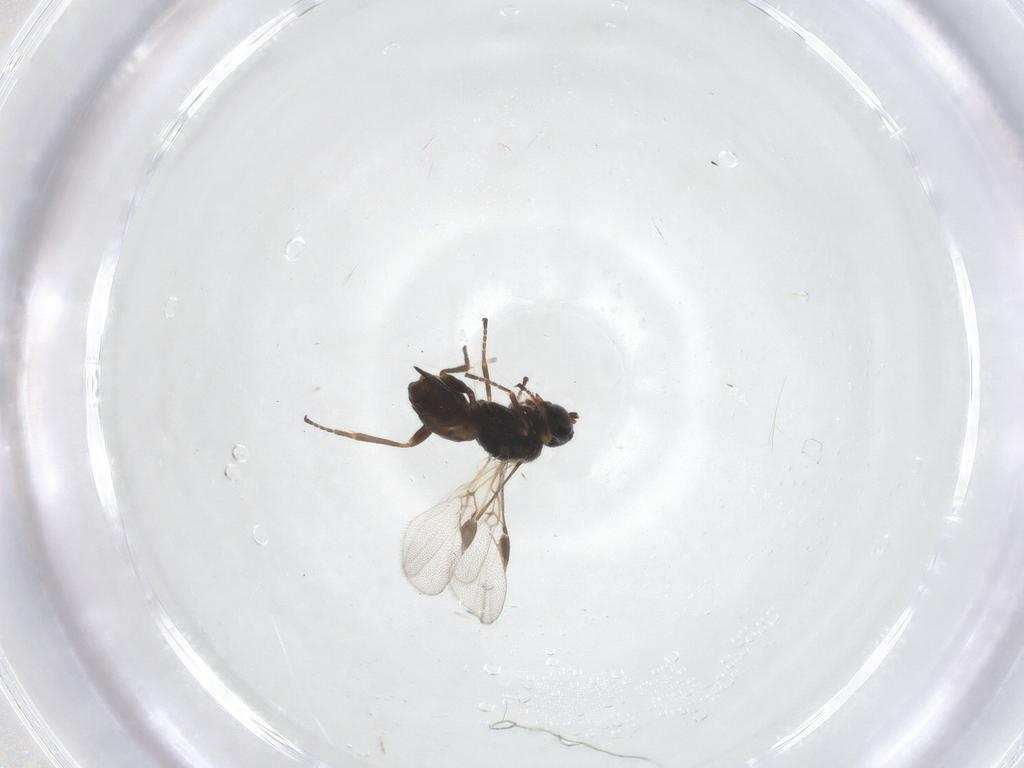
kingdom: Animalia
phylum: Arthropoda
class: Insecta
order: Hymenoptera
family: Braconidae
